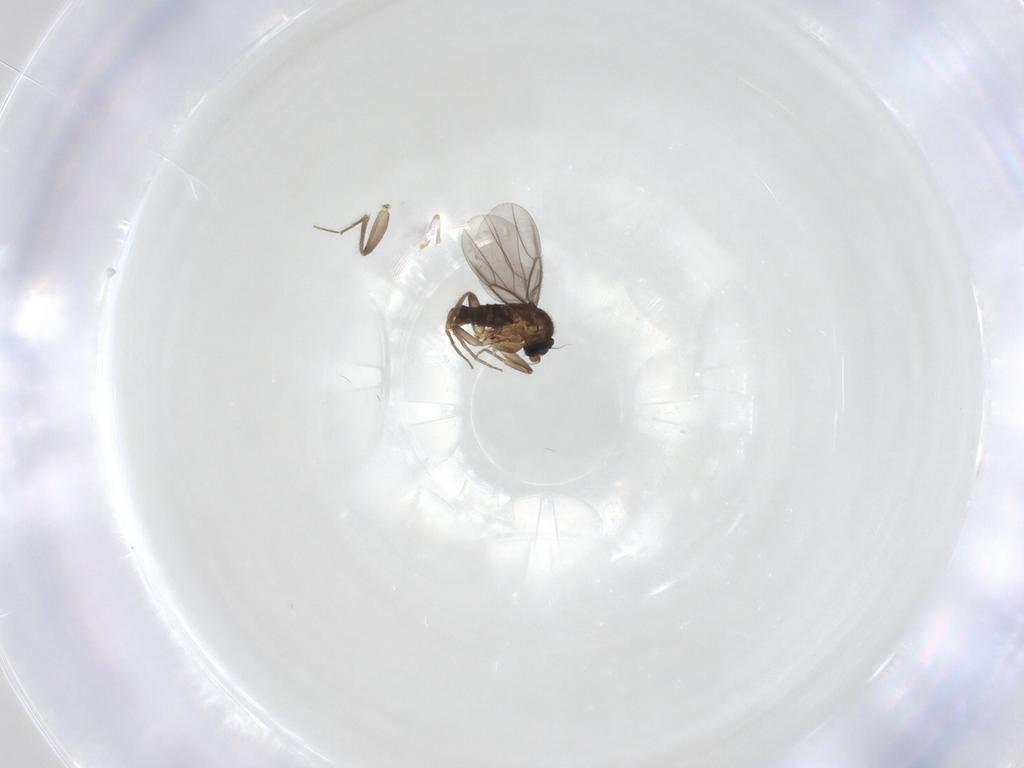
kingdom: Animalia
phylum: Arthropoda
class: Insecta
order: Diptera
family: Phoridae
